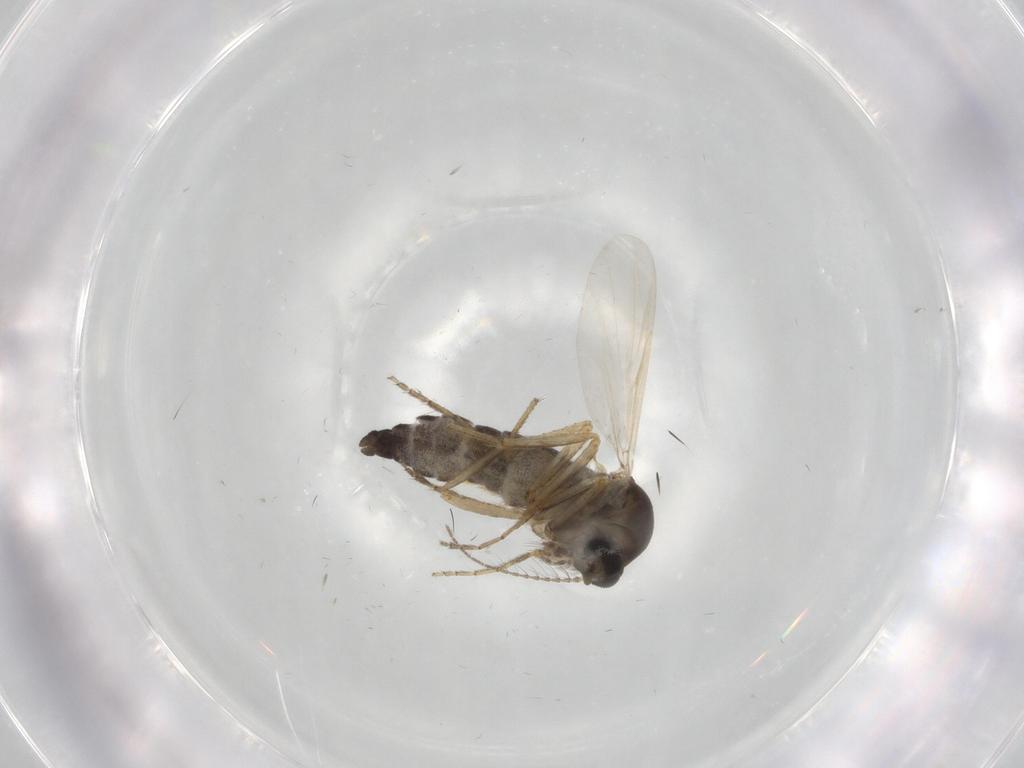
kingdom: Animalia
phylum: Arthropoda
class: Insecta
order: Diptera
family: Ceratopogonidae
